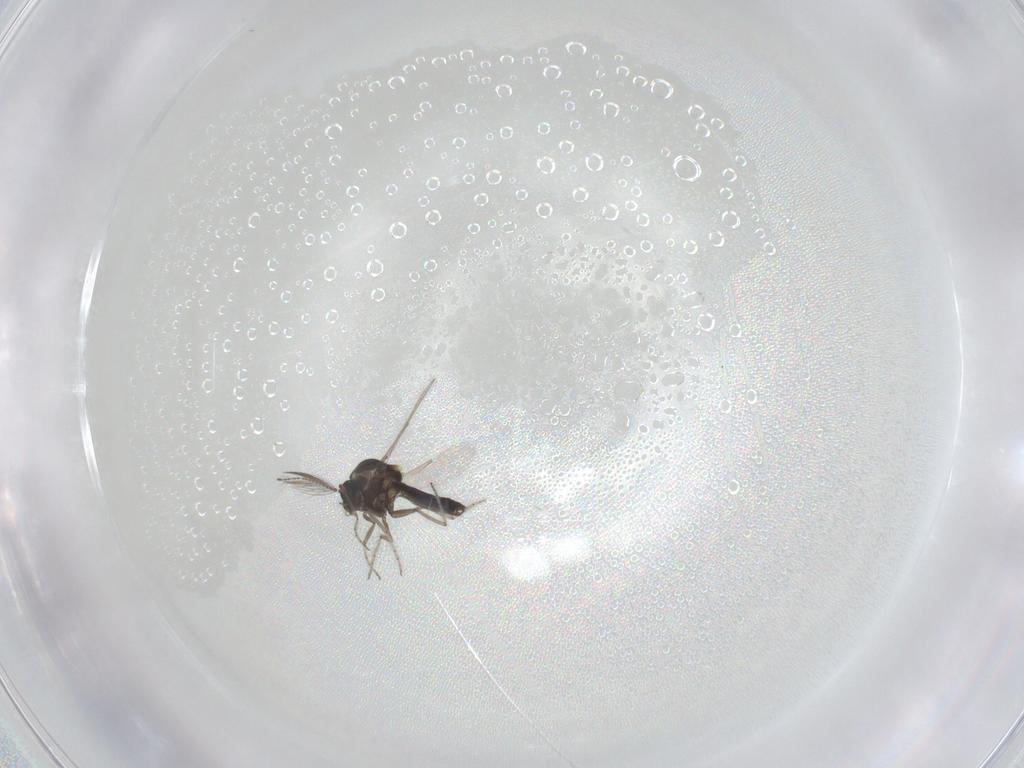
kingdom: Animalia
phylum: Arthropoda
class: Insecta
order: Diptera
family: Ceratopogonidae
